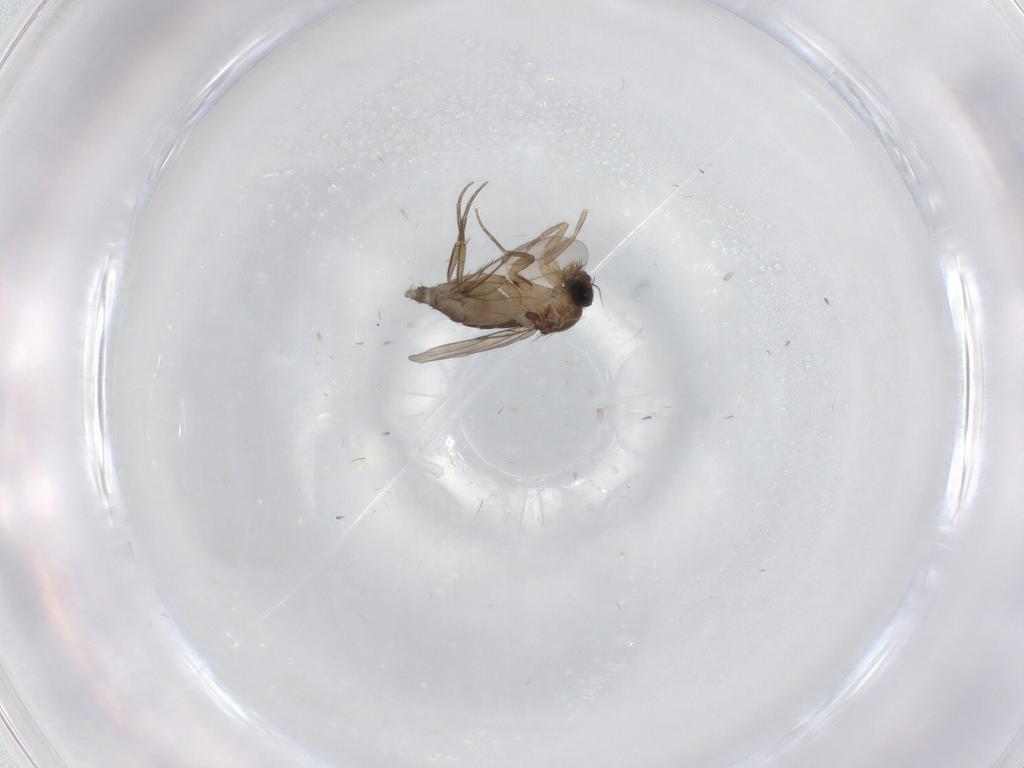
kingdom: Animalia
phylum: Arthropoda
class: Insecta
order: Diptera
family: Phoridae
